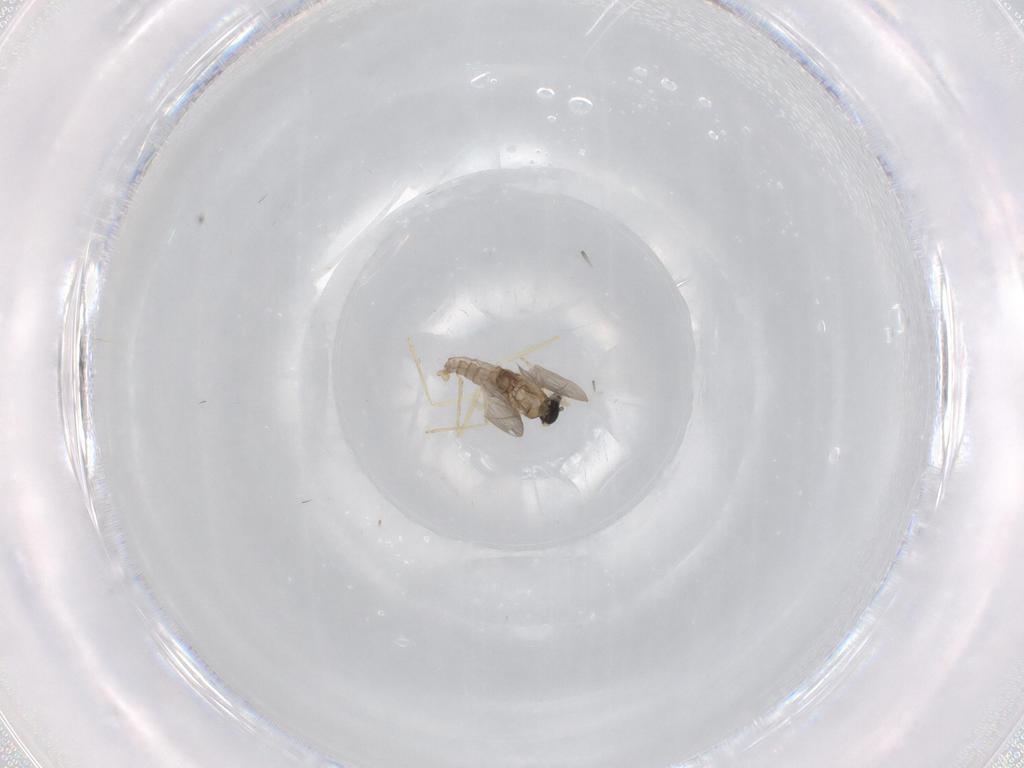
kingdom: Animalia
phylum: Arthropoda
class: Insecta
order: Diptera
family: Cecidomyiidae
